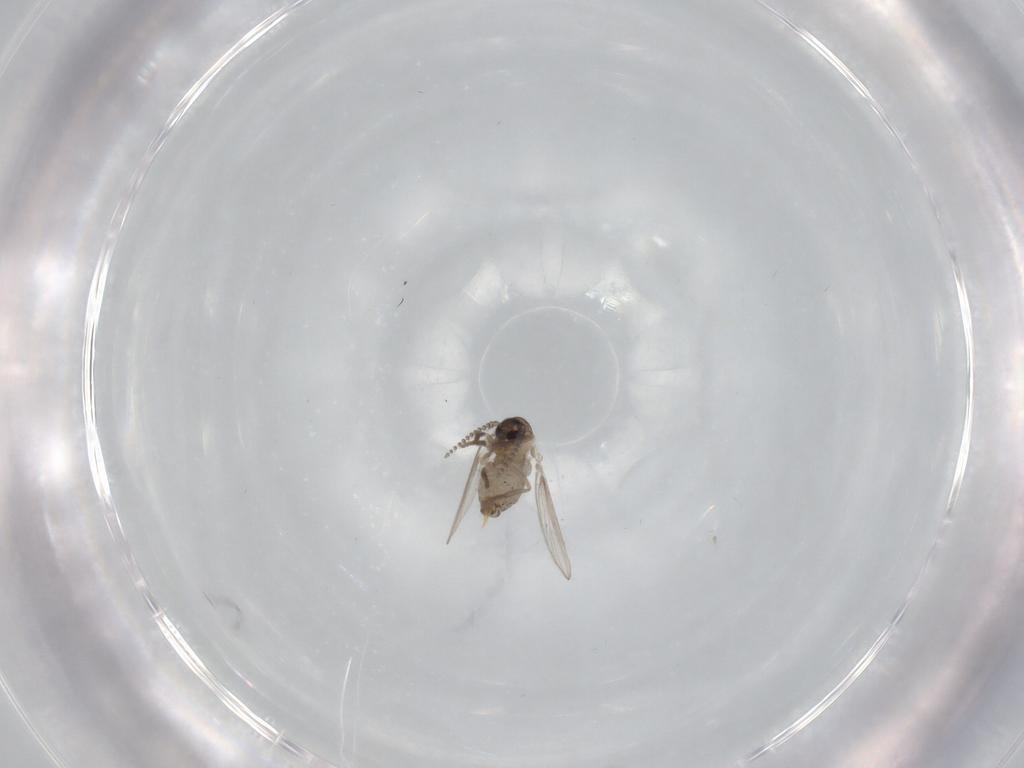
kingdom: Animalia
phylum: Arthropoda
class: Insecta
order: Diptera
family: Psychodidae
